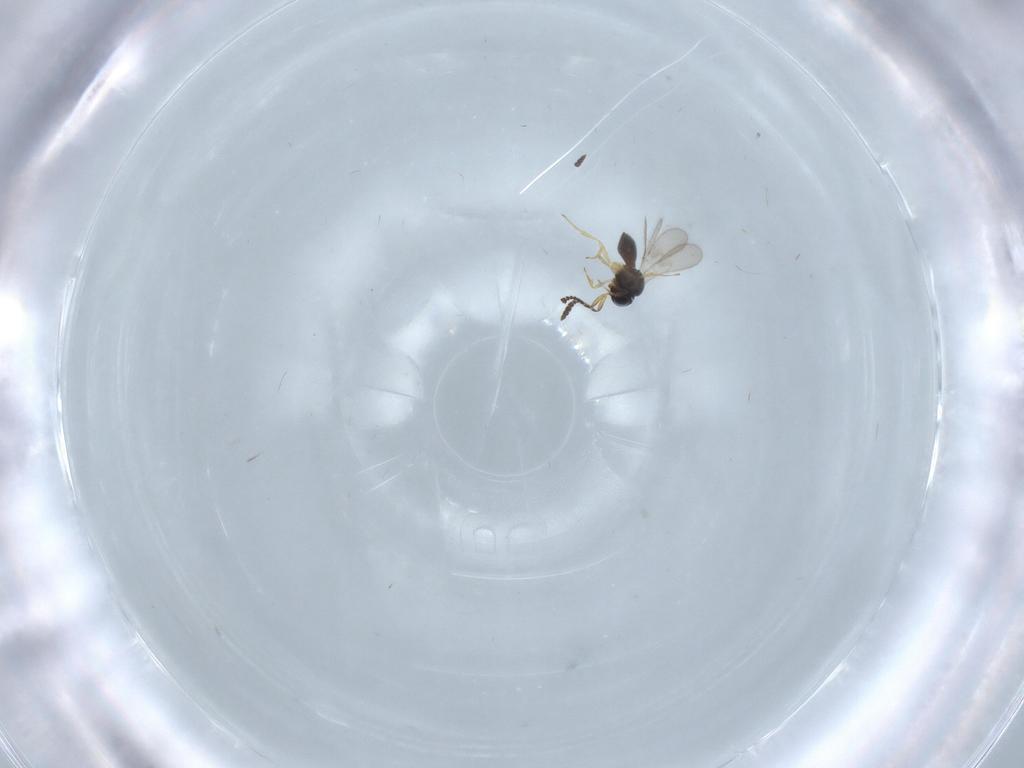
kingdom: Animalia
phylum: Arthropoda
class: Insecta
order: Hymenoptera
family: Scelionidae
